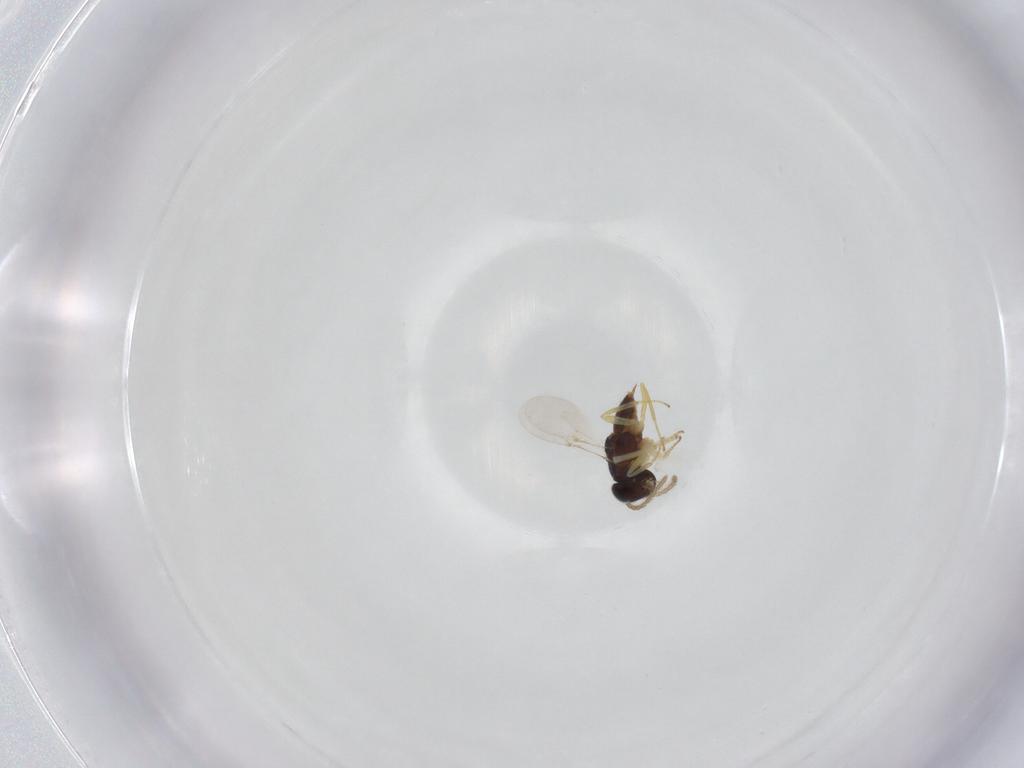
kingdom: Animalia
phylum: Arthropoda
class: Insecta
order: Hymenoptera
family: Encyrtidae
